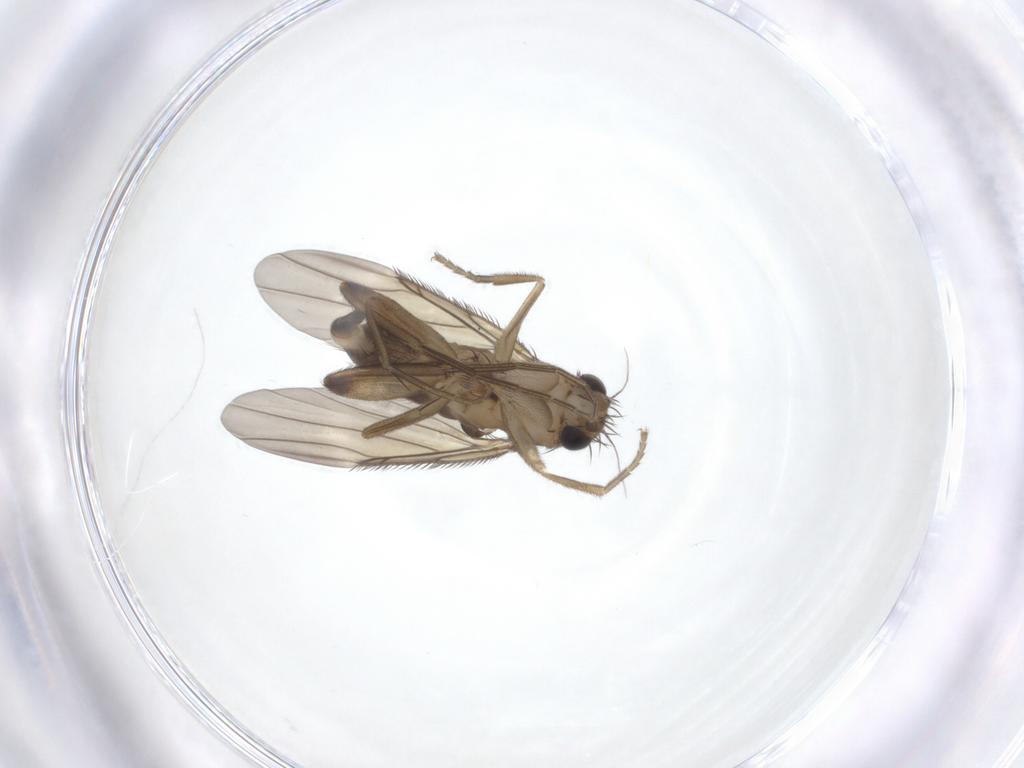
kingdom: Animalia
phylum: Arthropoda
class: Insecta
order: Diptera
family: Phoridae
